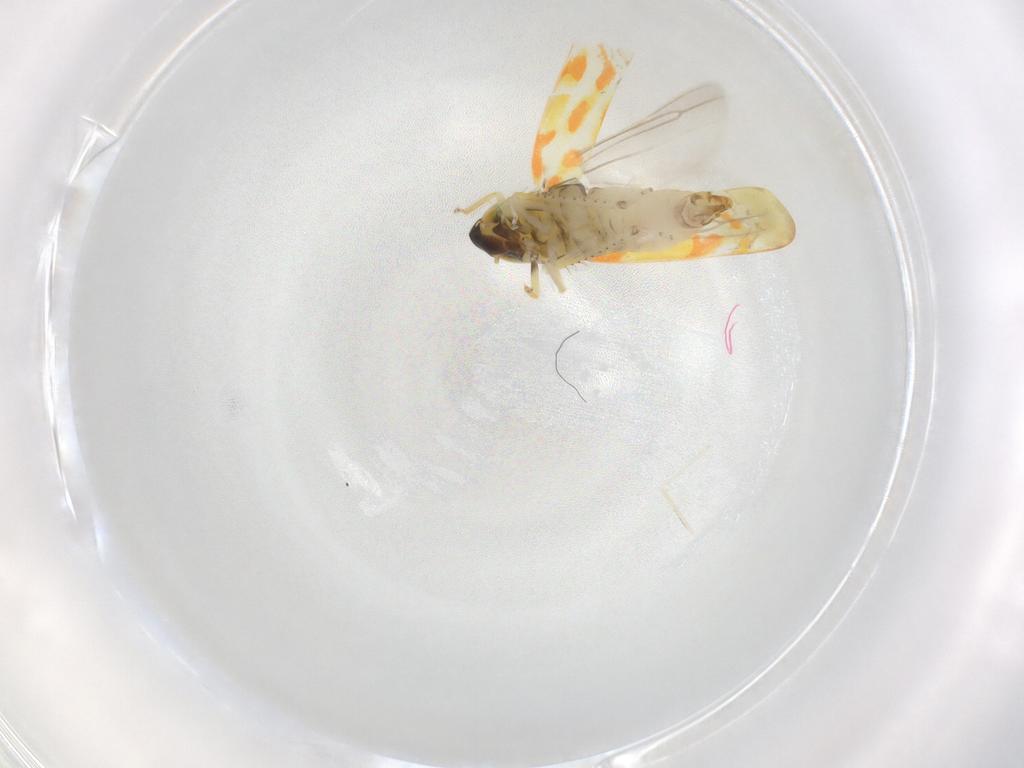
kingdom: Animalia
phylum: Arthropoda
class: Insecta
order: Hemiptera
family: Cicadellidae
